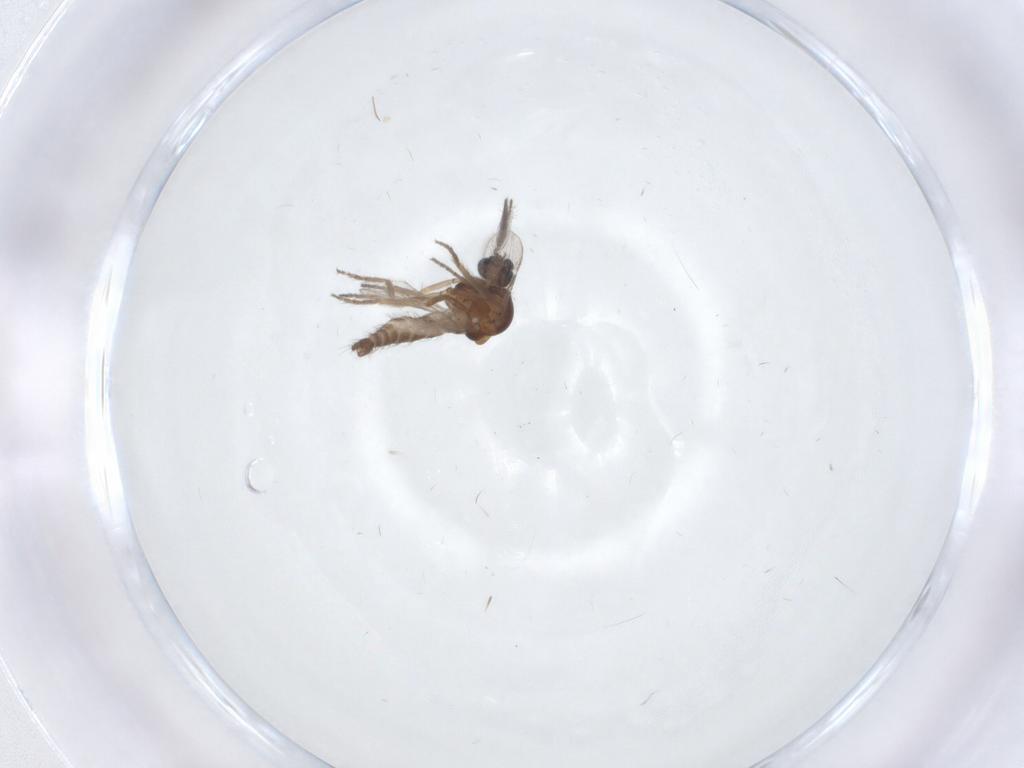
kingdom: Animalia
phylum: Arthropoda
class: Insecta
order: Diptera
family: Ceratopogonidae
